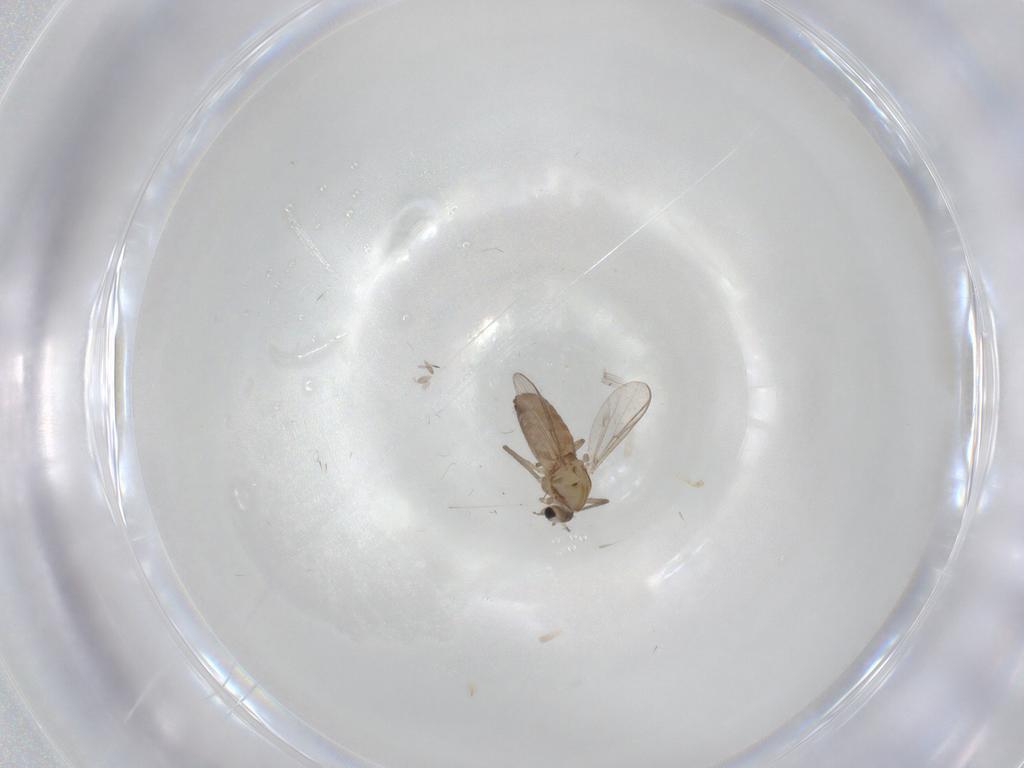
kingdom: Animalia
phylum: Arthropoda
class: Insecta
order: Diptera
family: Chironomidae
